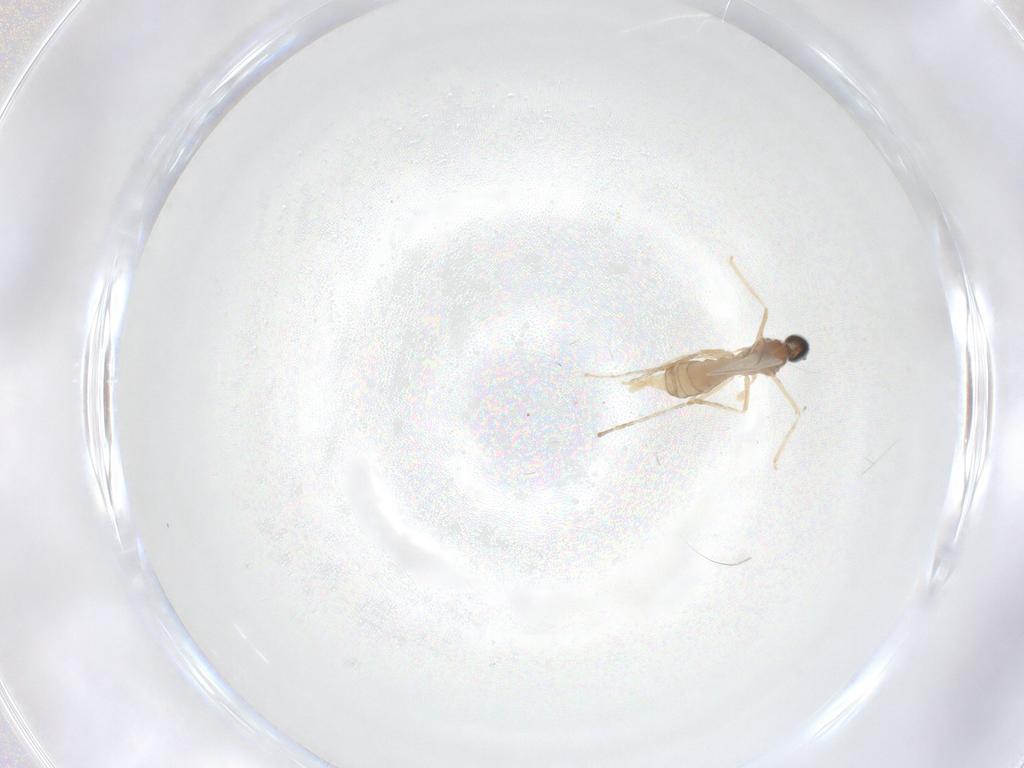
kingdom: Animalia
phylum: Arthropoda
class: Insecta
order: Diptera
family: Cecidomyiidae
